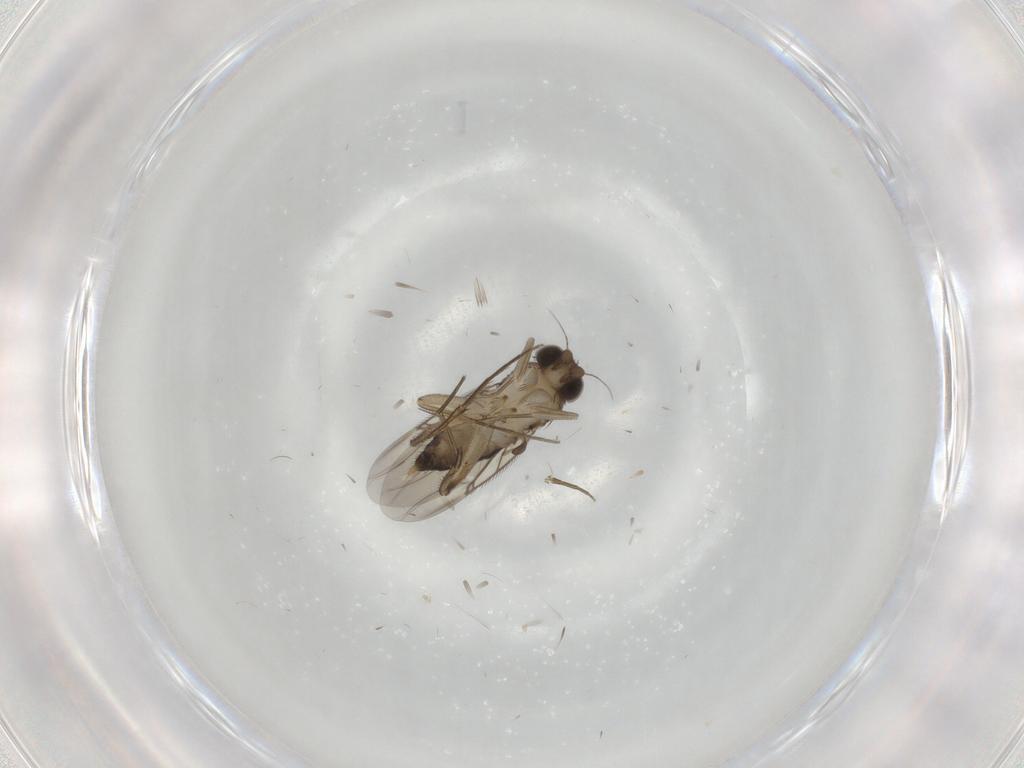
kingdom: Animalia
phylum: Arthropoda
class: Insecta
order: Diptera
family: Phoridae
